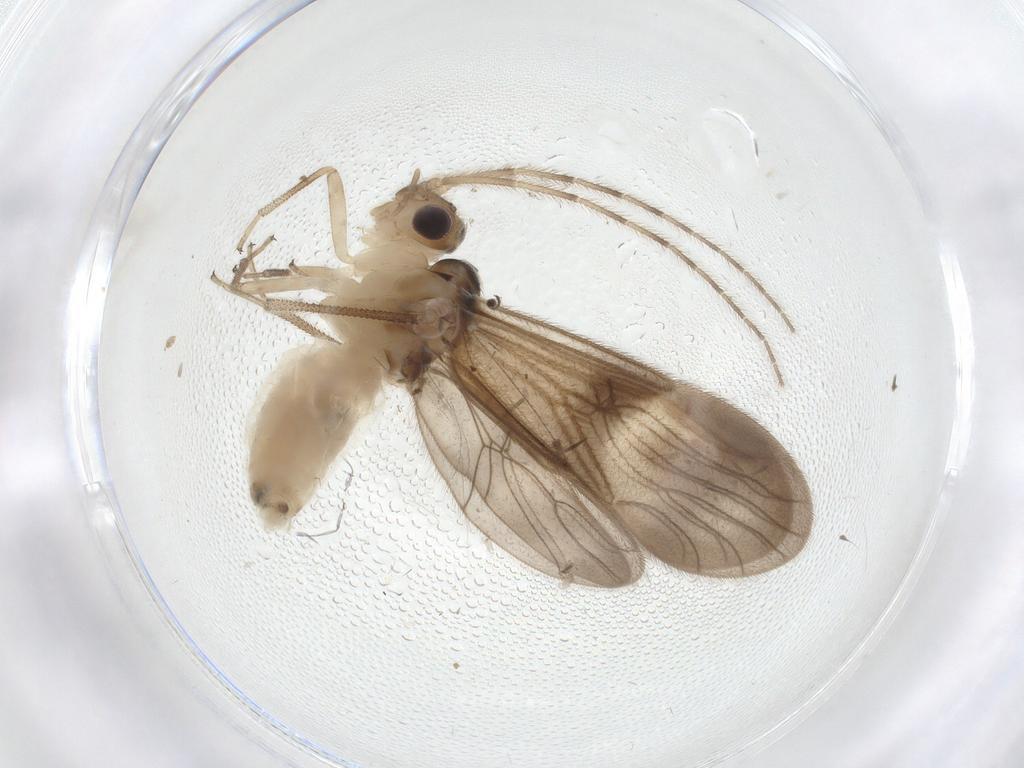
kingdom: Animalia
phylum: Arthropoda
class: Insecta
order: Psocodea
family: Amphipsocidae
